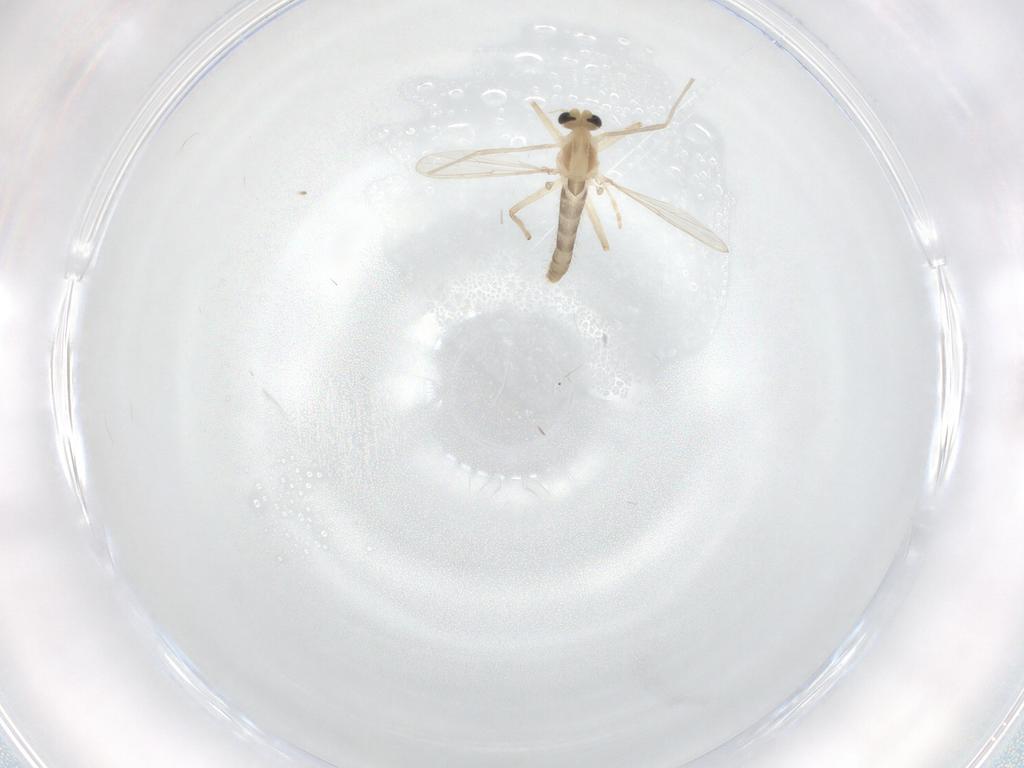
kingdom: Animalia
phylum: Arthropoda
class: Insecta
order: Diptera
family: Chironomidae
